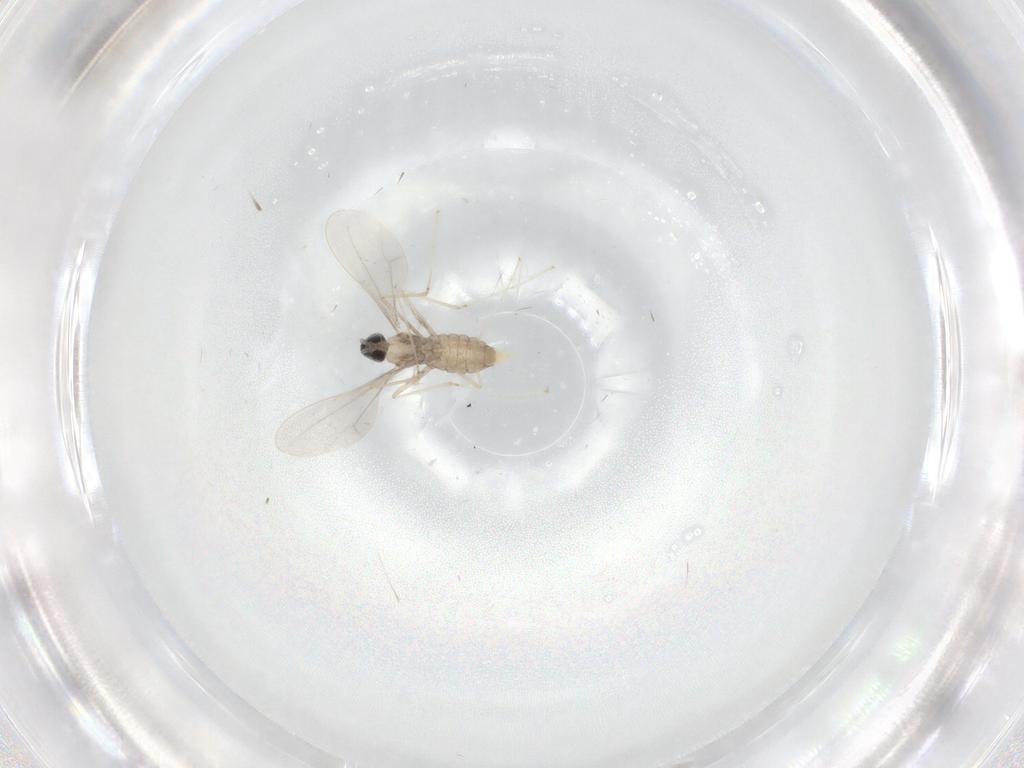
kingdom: Animalia
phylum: Arthropoda
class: Insecta
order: Diptera
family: Cecidomyiidae
